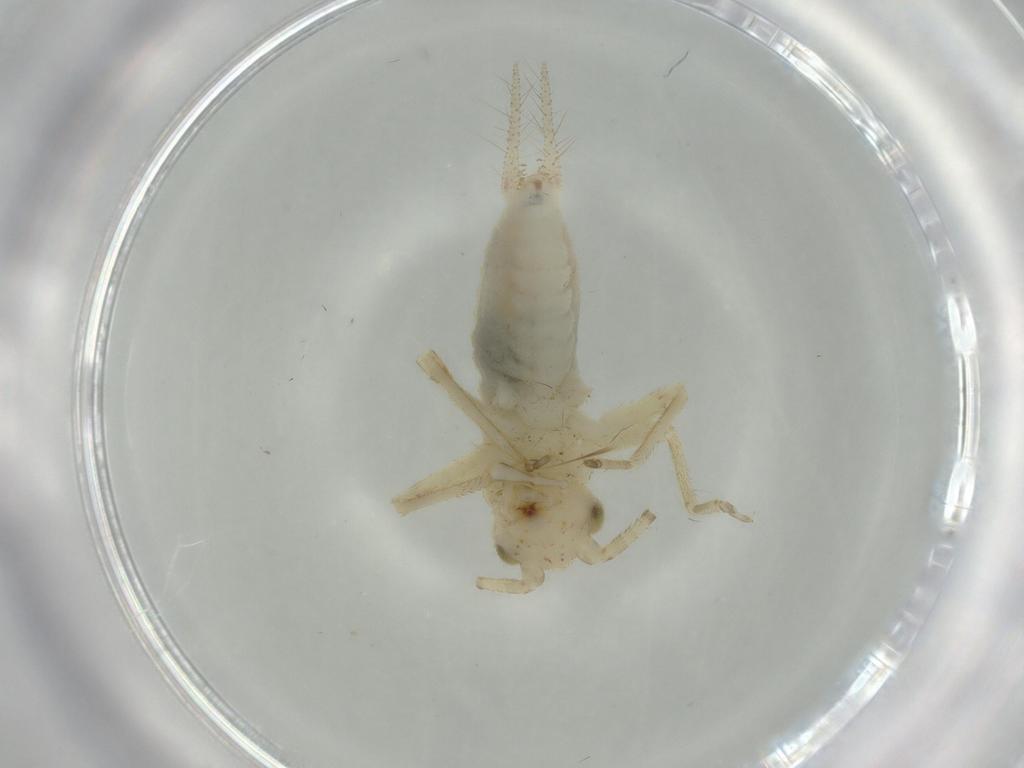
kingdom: Animalia
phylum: Arthropoda
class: Insecta
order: Orthoptera
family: Trigonidiidae
